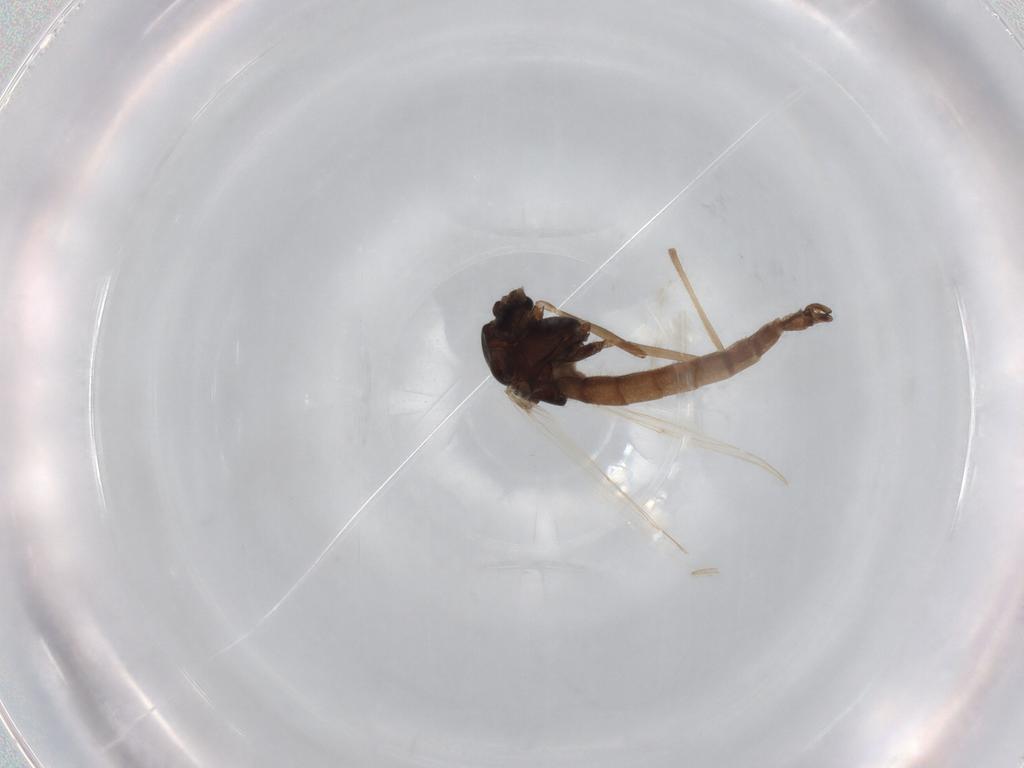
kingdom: Animalia
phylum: Arthropoda
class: Insecta
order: Diptera
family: Chironomidae
